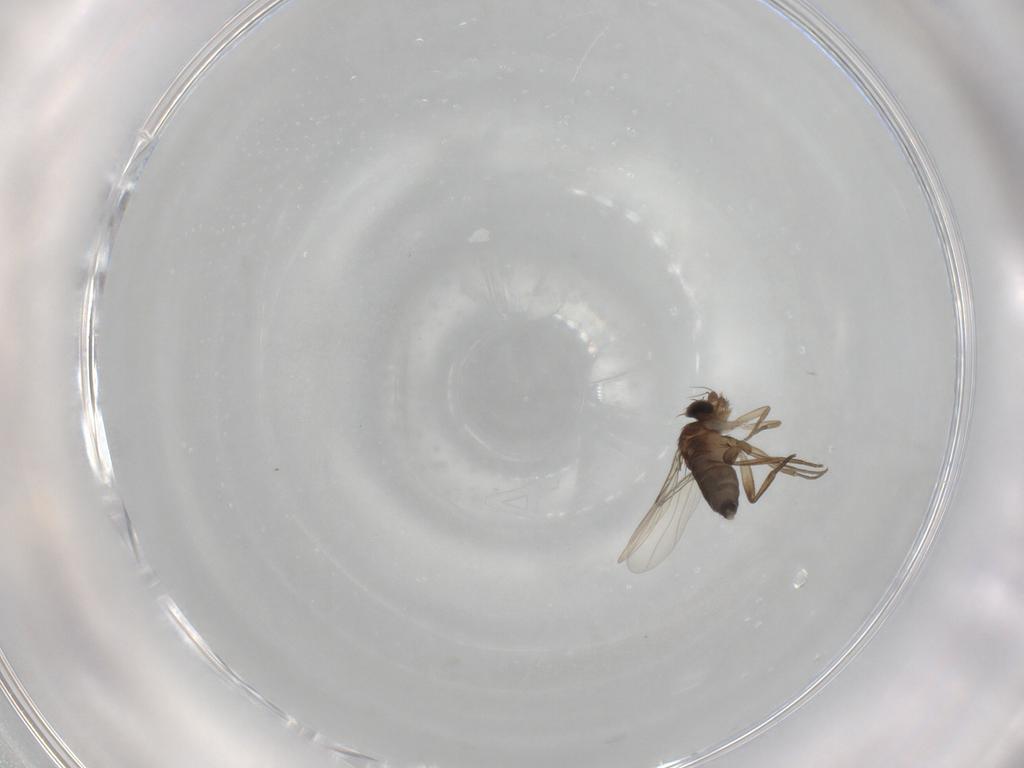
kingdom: Animalia
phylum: Arthropoda
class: Insecta
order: Diptera
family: Phoridae
